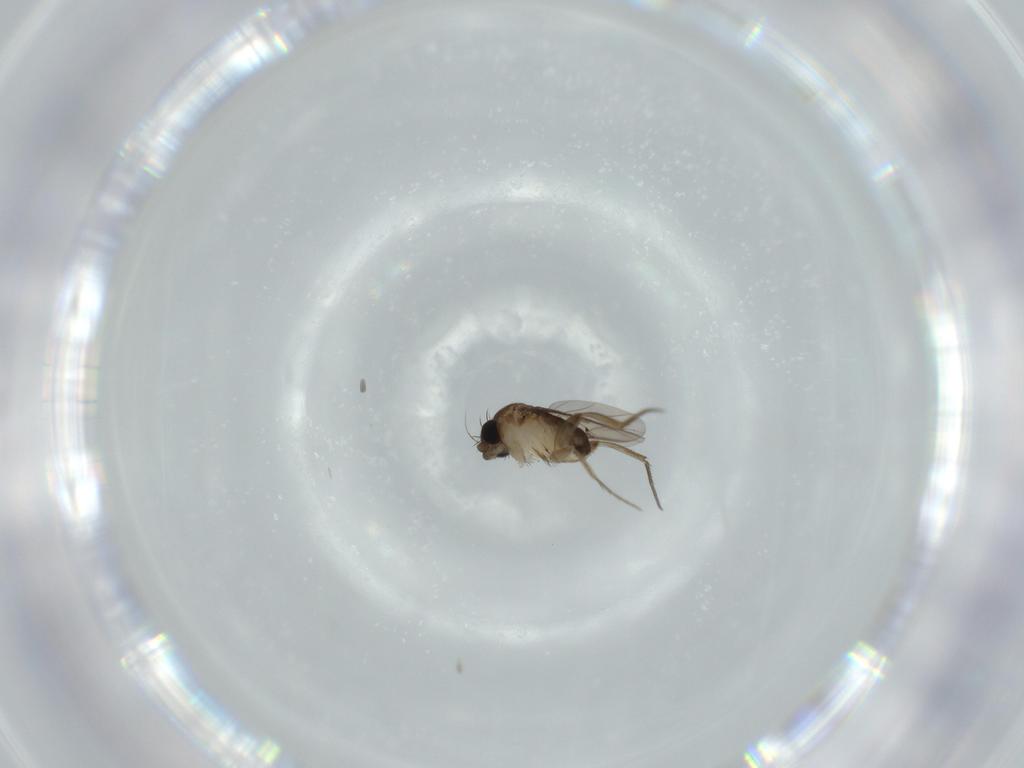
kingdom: Animalia
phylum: Arthropoda
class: Insecta
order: Diptera
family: Phoridae
